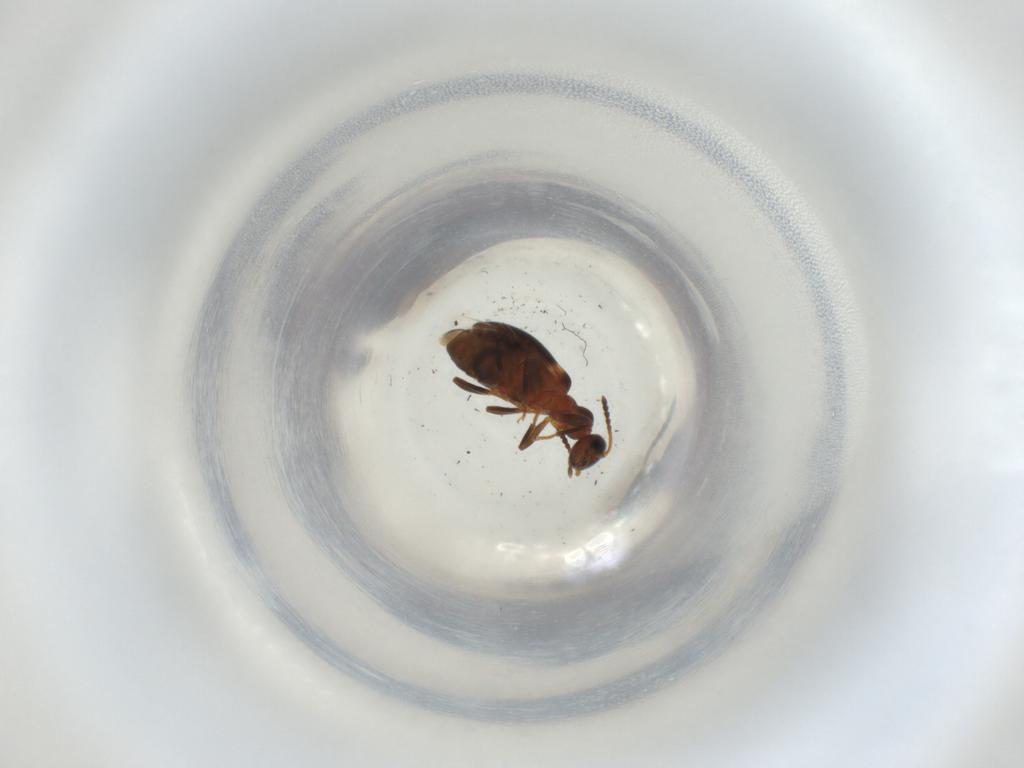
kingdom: Animalia
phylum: Arthropoda
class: Insecta
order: Coleoptera
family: Anthicidae
